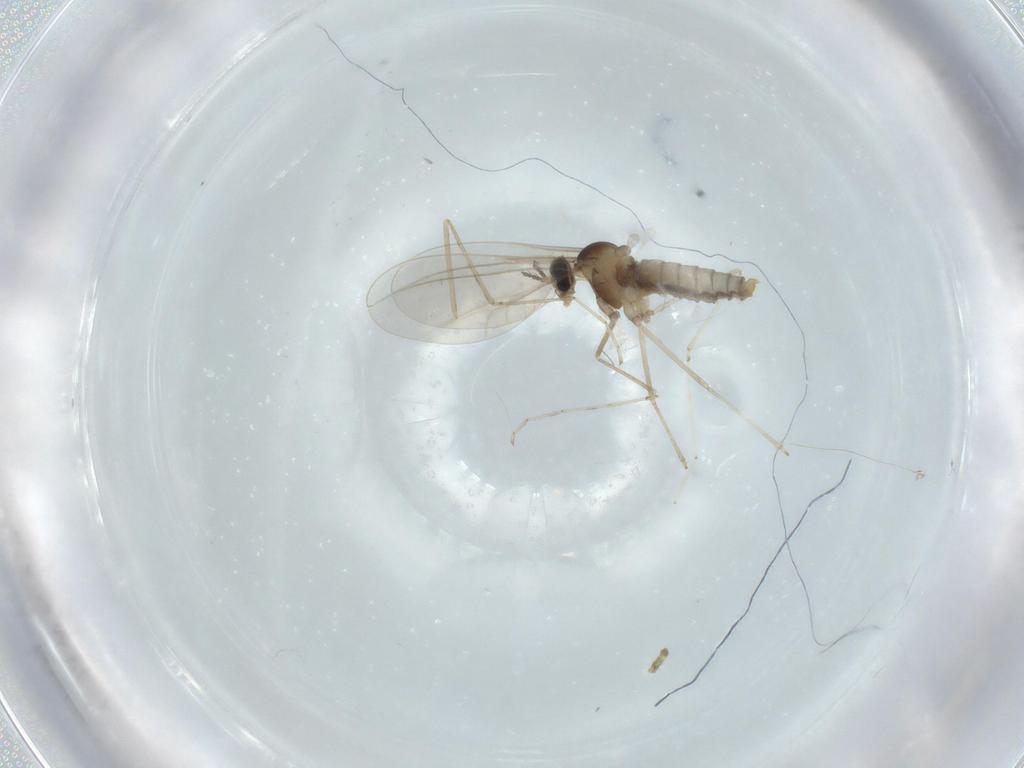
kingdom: Animalia
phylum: Arthropoda
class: Insecta
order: Diptera
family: Cecidomyiidae
